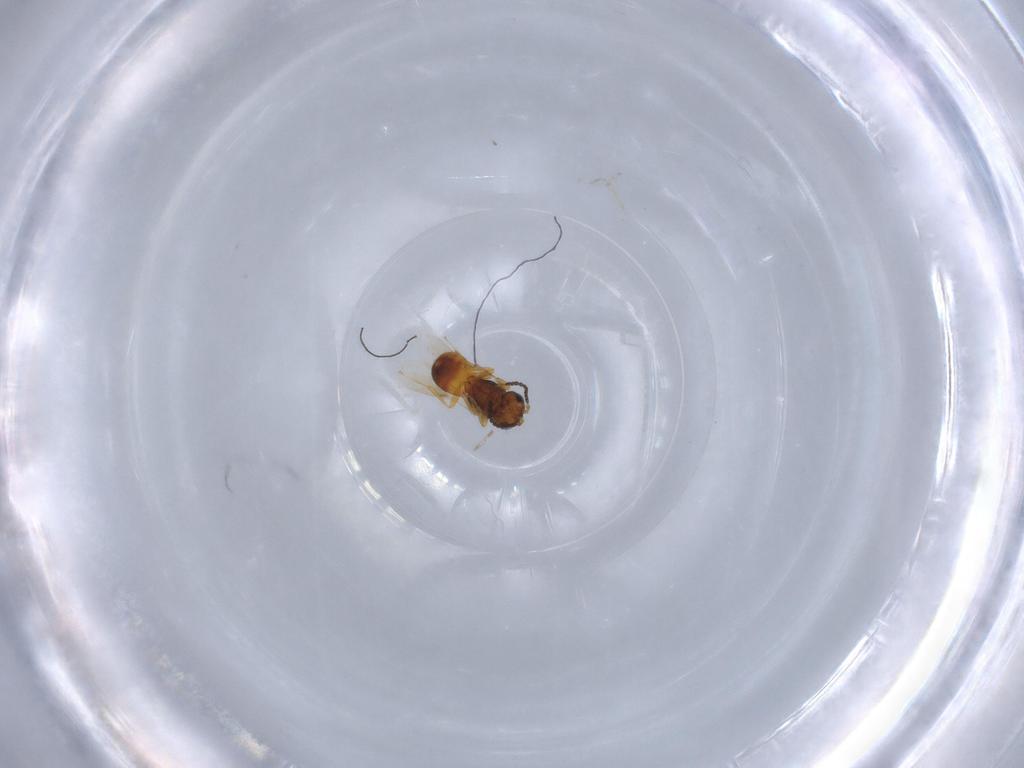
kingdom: Animalia
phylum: Arthropoda
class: Insecta
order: Hymenoptera
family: Scelionidae
